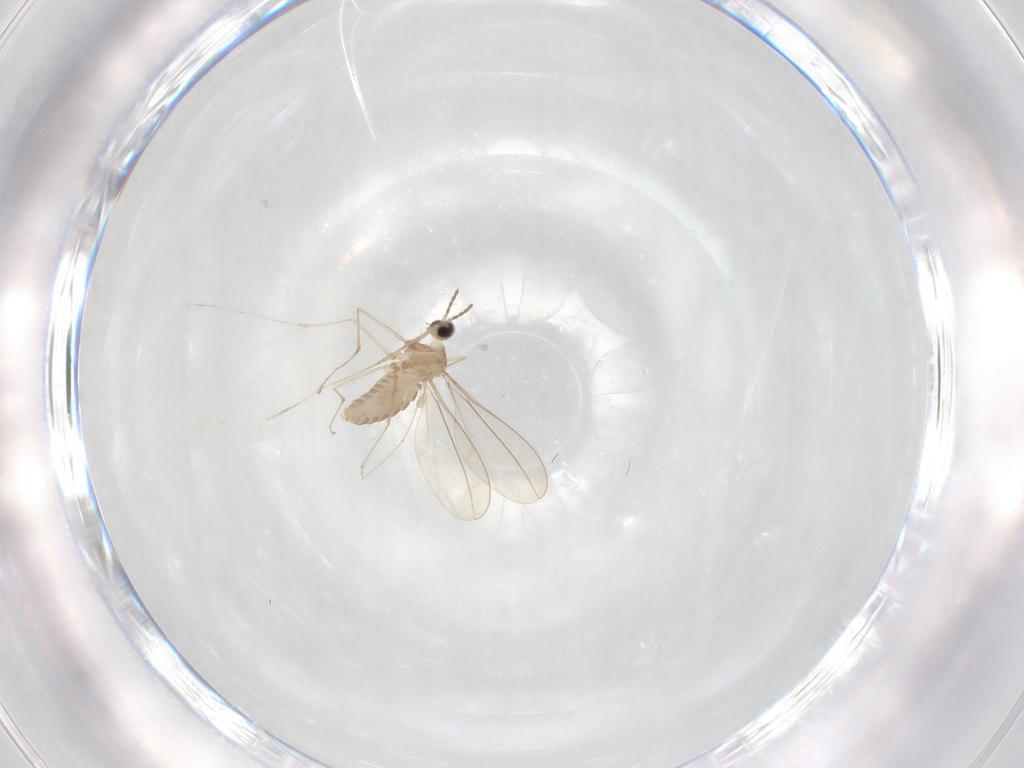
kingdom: Animalia
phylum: Arthropoda
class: Insecta
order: Diptera
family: Cecidomyiidae
